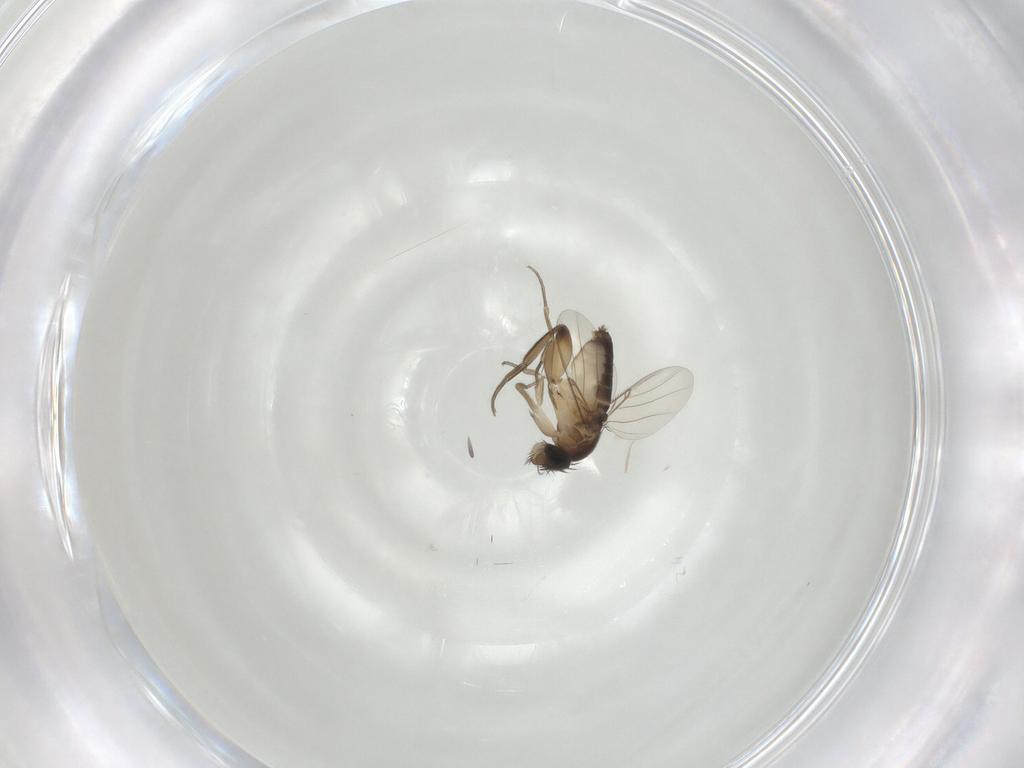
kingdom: Animalia
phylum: Arthropoda
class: Insecta
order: Diptera
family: Phoridae
